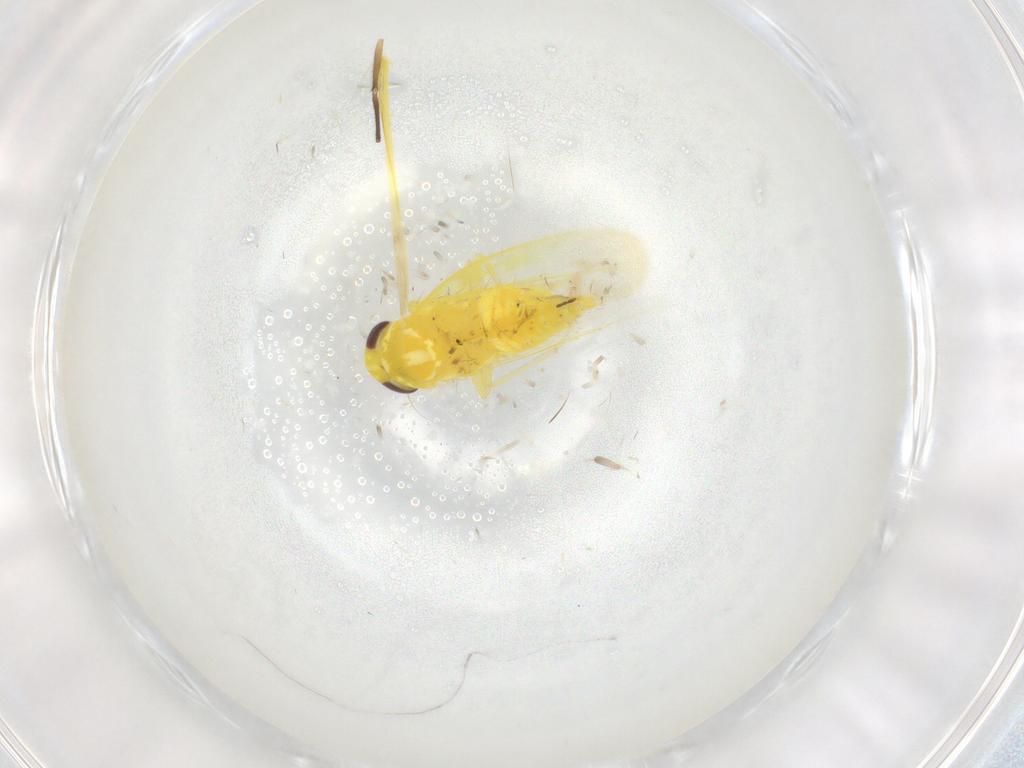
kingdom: Animalia
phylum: Arthropoda
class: Insecta
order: Hemiptera
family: Cicadellidae
